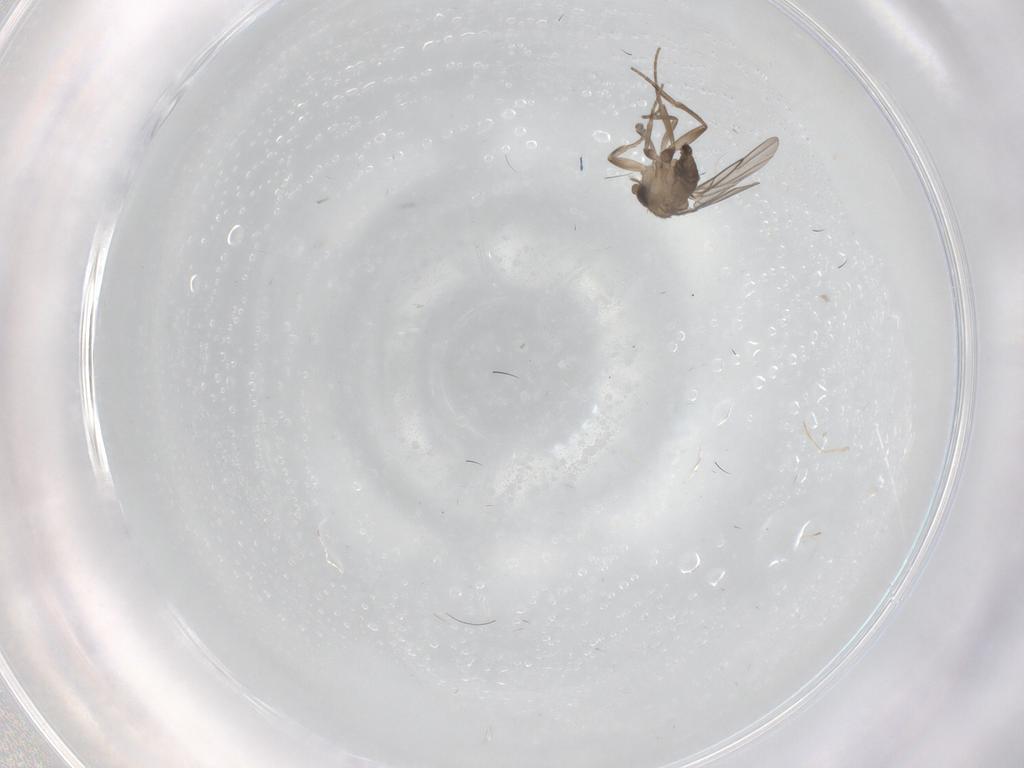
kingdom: Animalia
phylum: Arthropoda
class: Insecta
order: Diptera
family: Phoridae
